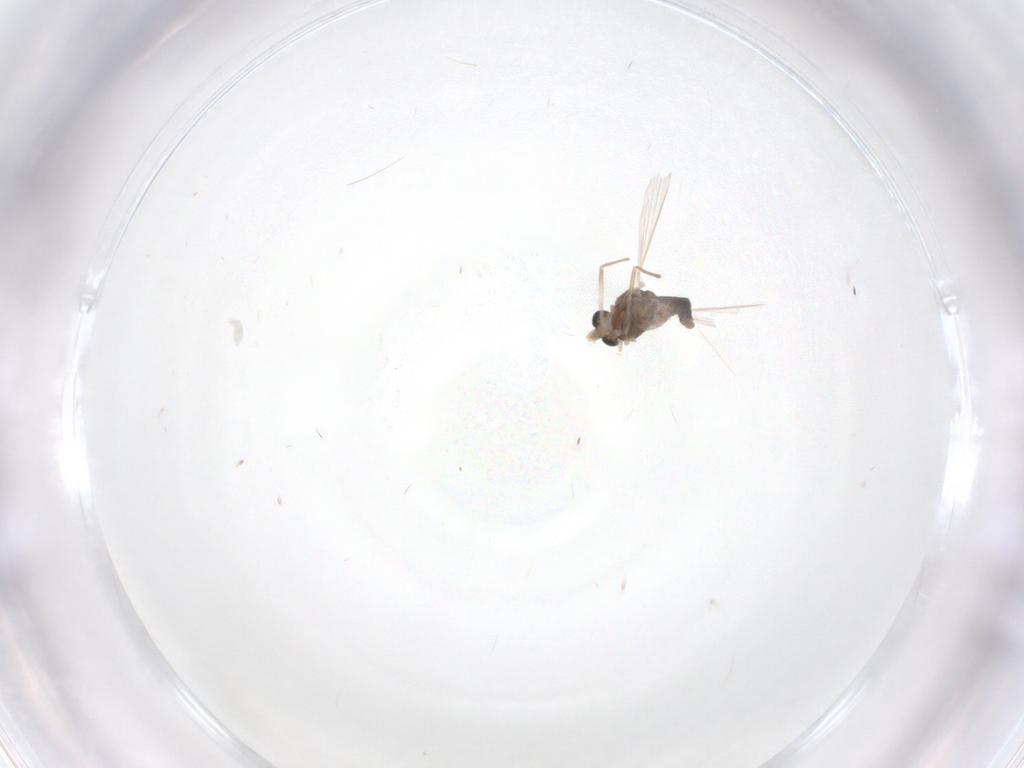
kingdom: Animalia
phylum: Arthropoda
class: Insecta
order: Diptera
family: Chironomidae
